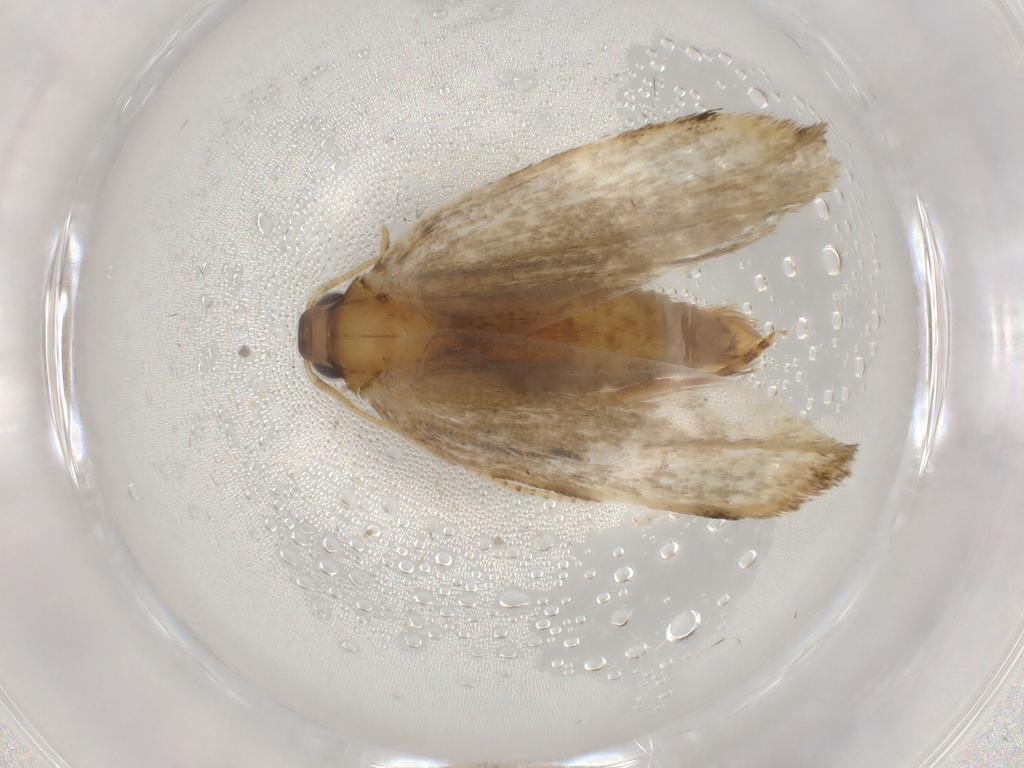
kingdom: Animalia
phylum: Arthropoda
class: Insecta
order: Lepidoptera
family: Gelechiidae
